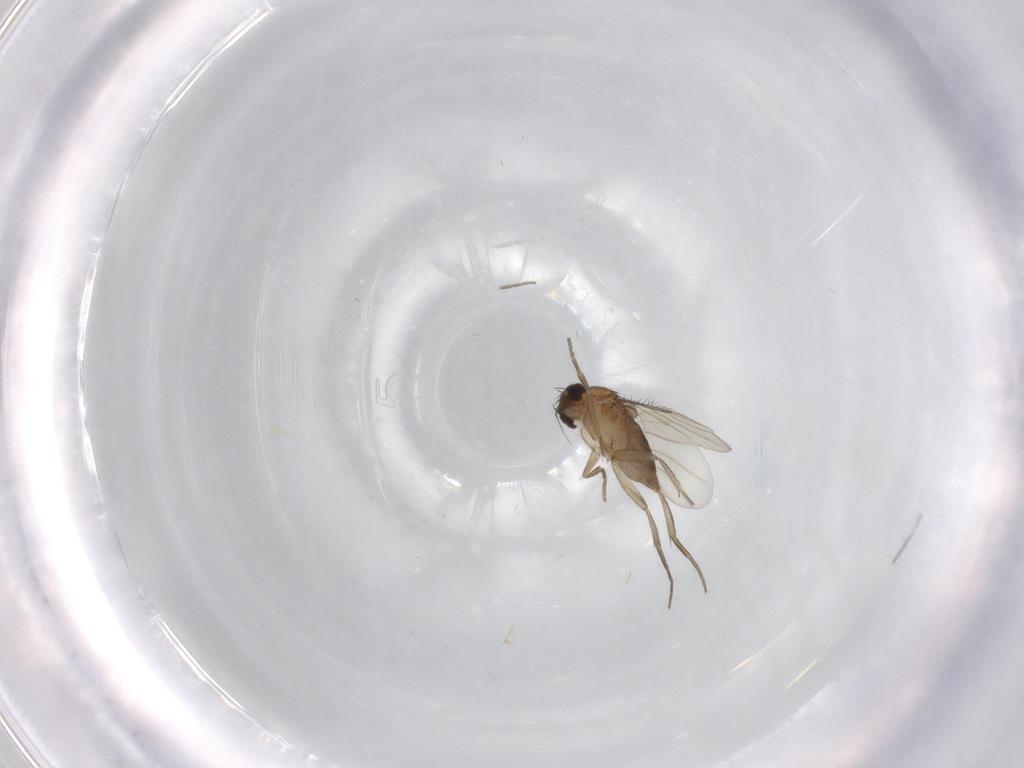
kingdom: Animalia
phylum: Arthropoda
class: Insecta
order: Diptera
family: Phoridae
